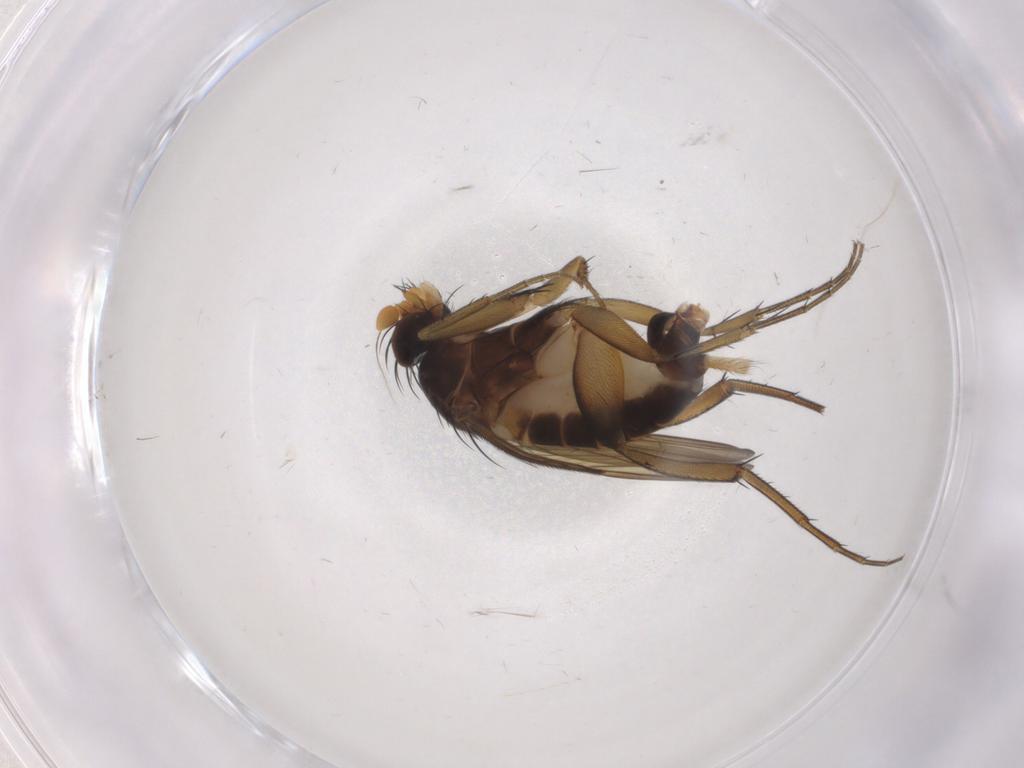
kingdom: Animalia
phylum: Arthropoda
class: Insecta
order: Diptera
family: Phoridae
